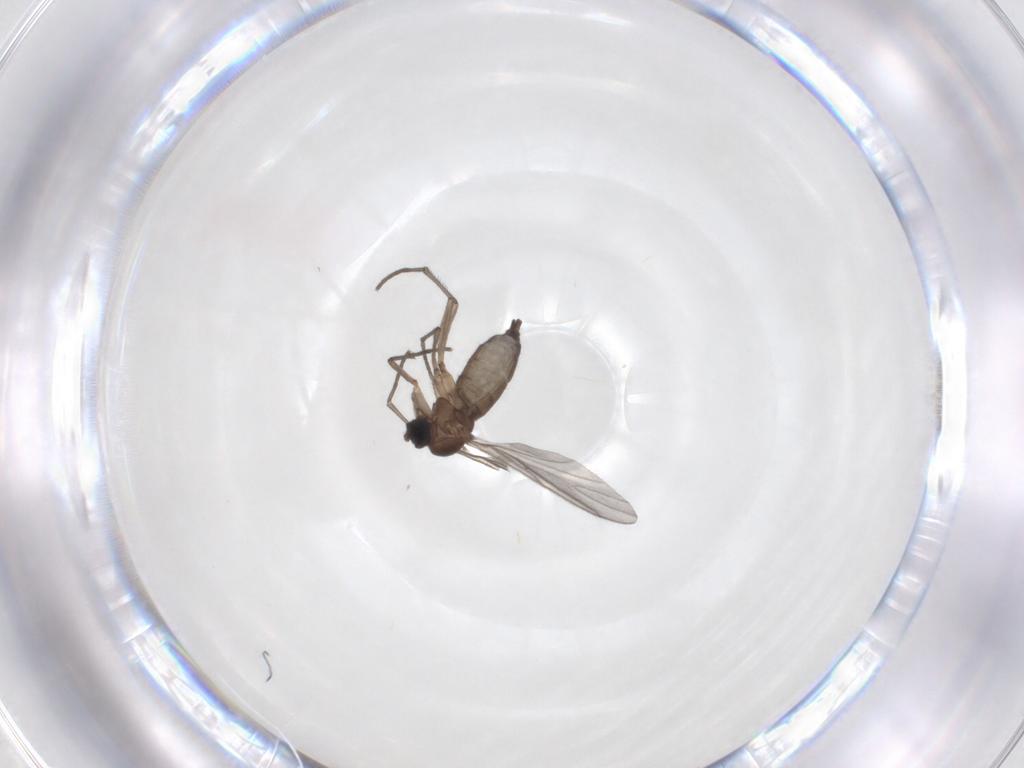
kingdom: Animalia
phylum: Arthropoda
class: Insecta
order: Diptera
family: Sciaridae
